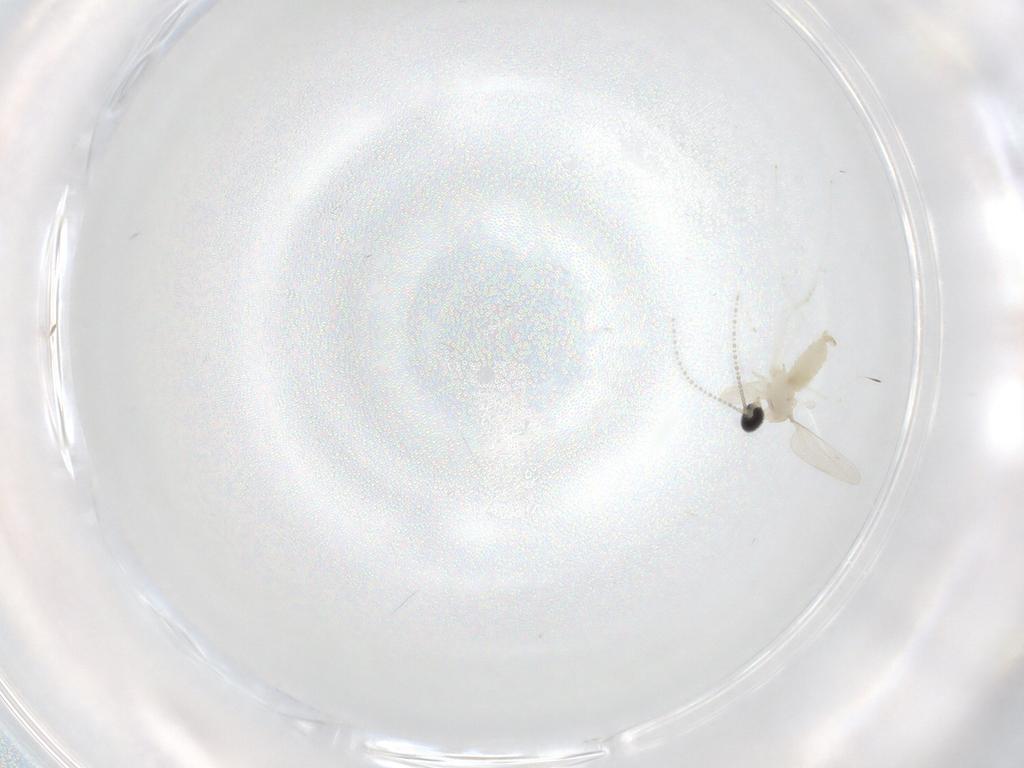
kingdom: Animalia
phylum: Arthropoda
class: Insecta
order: Diptera
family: Cecidomyiidae
